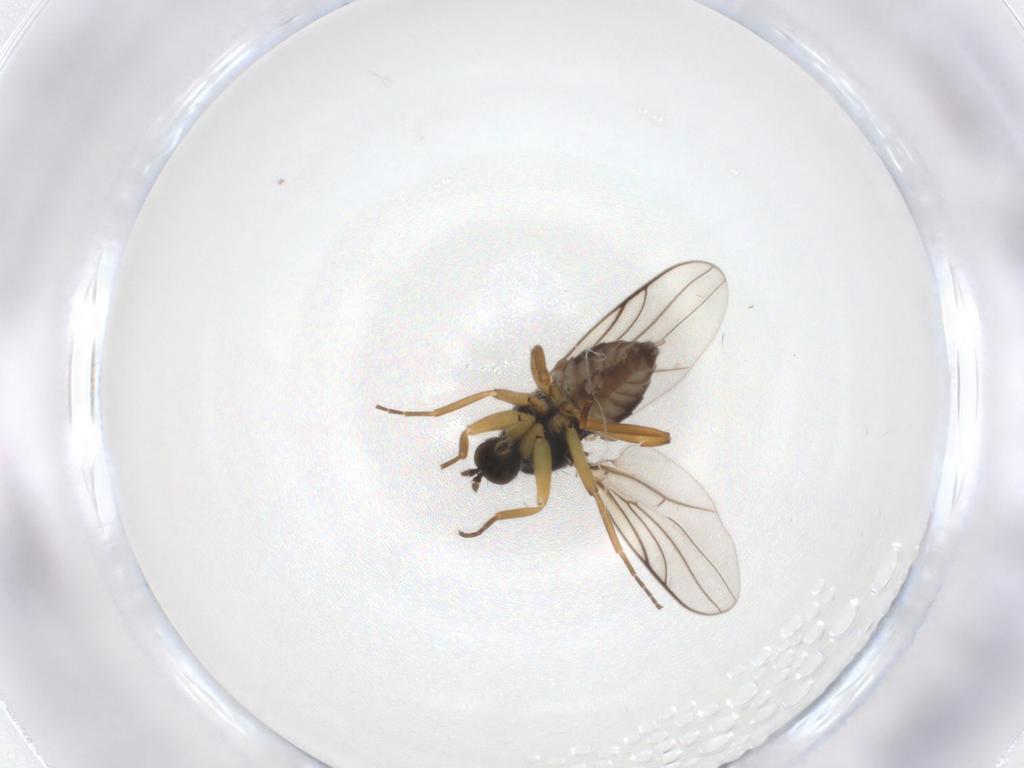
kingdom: Animalia
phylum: Arthropoda
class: Insecta
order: Diptera
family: Hybotidae
